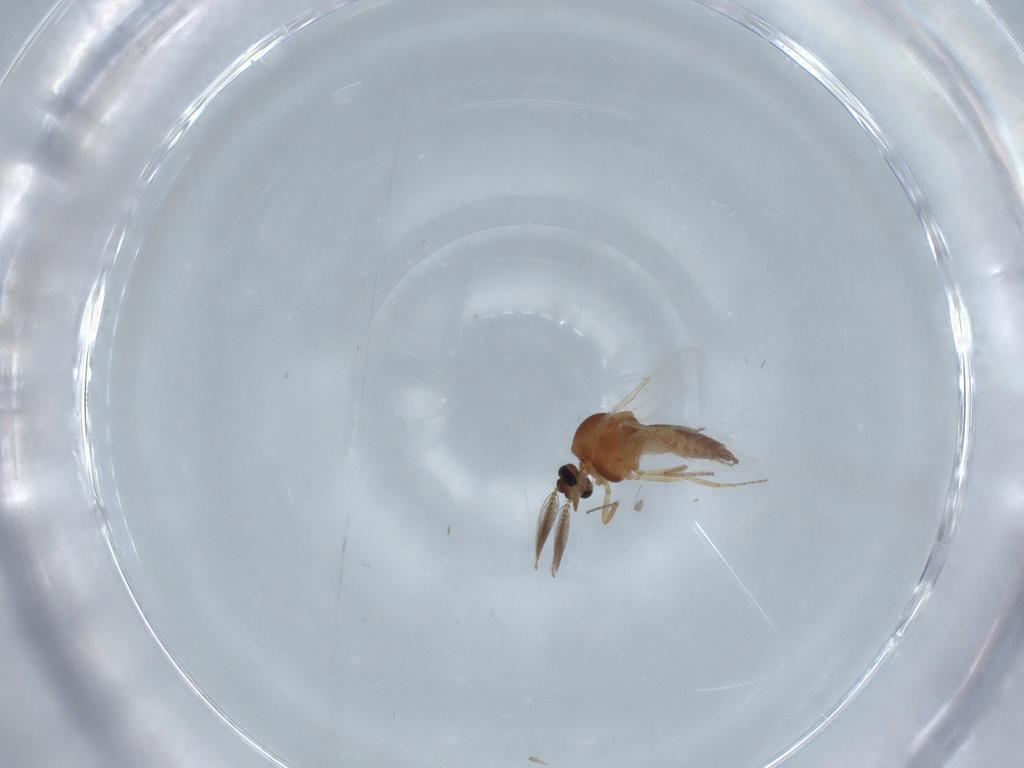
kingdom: Animalia
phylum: Arthropoda
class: Insecta
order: Diptera
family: Ceratopogonidae
